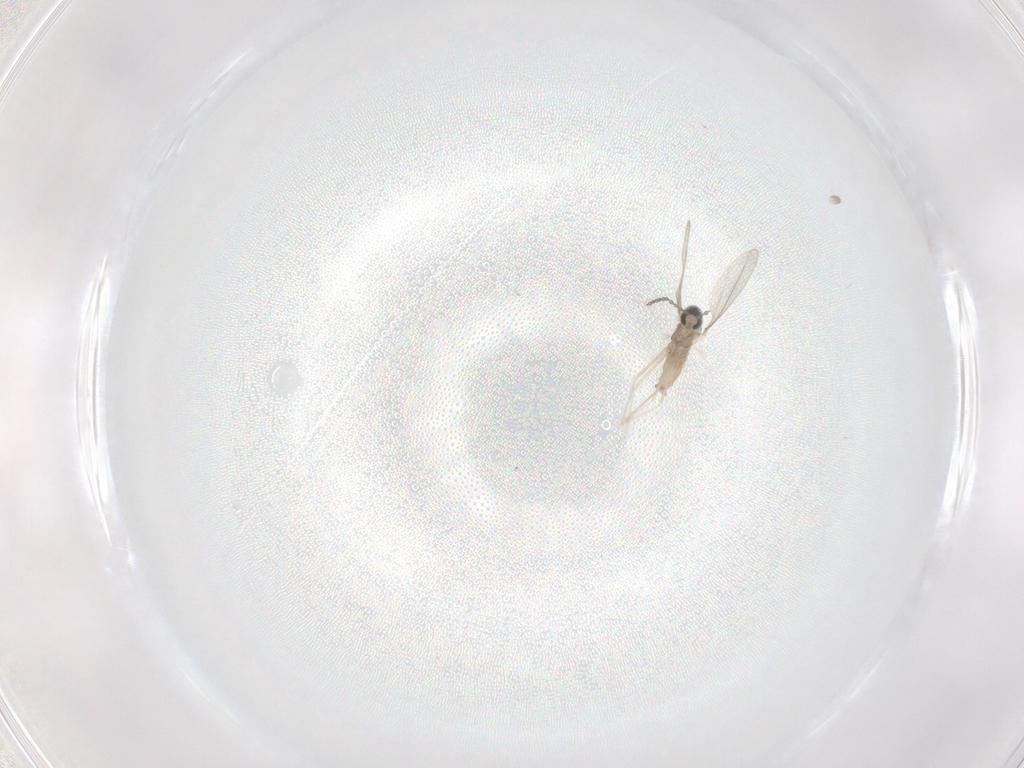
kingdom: Animalia
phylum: Arthropoda
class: Insecta
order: Diptera
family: Cecidomyiidae
